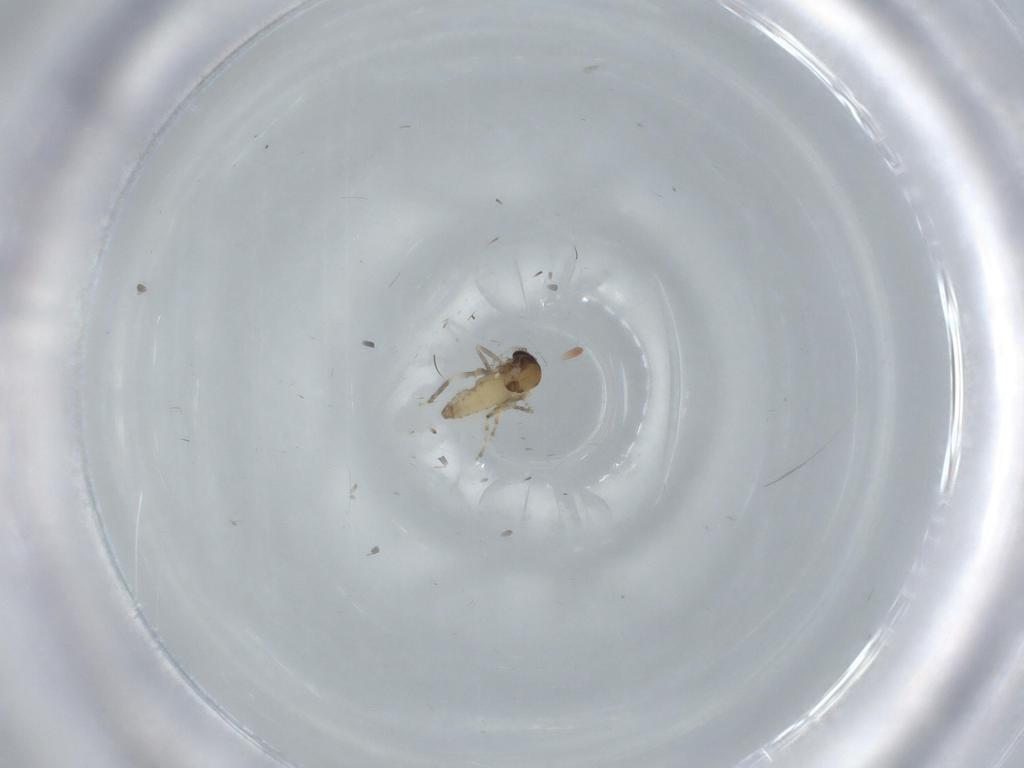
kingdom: Animalia
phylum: Arthropoda
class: Insecta
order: Diptera
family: Ceratopogonidae
